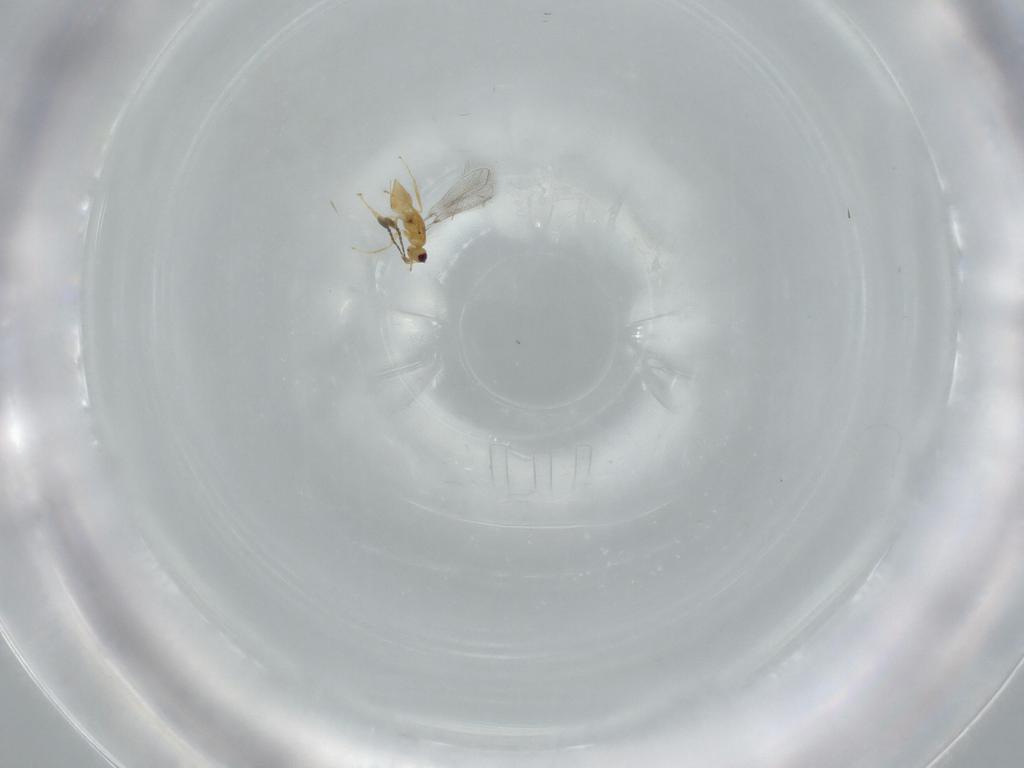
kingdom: Animalia
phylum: Arthropoda
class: Insecta
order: Hymenoptera
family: Mymaridae
